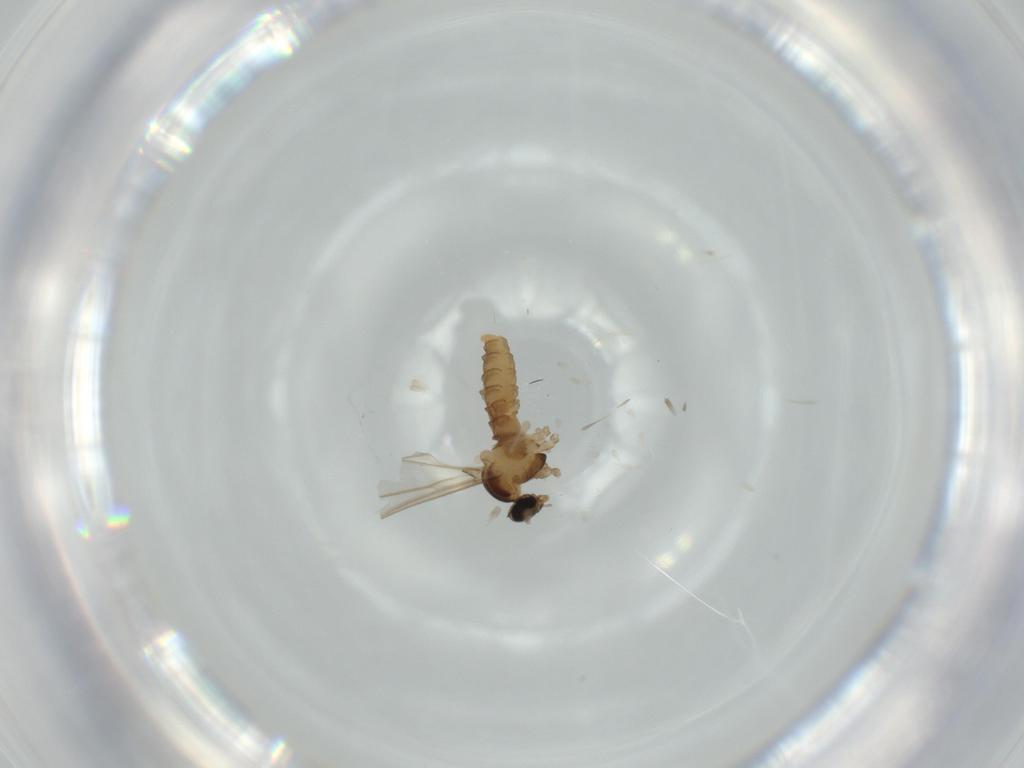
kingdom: Animalia
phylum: Arthropoda
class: Insecta
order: Diptera
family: Cecidomyiidae
